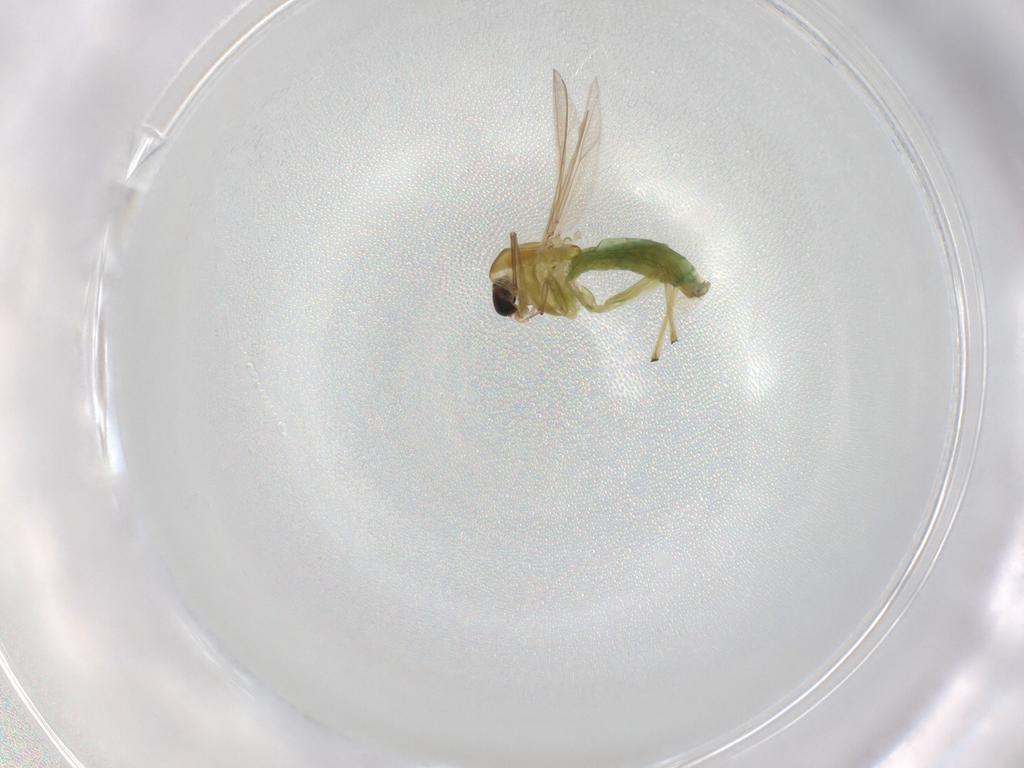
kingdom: Animalia
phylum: Arthropoda
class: Insecta
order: Diptera
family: Chironomidae
